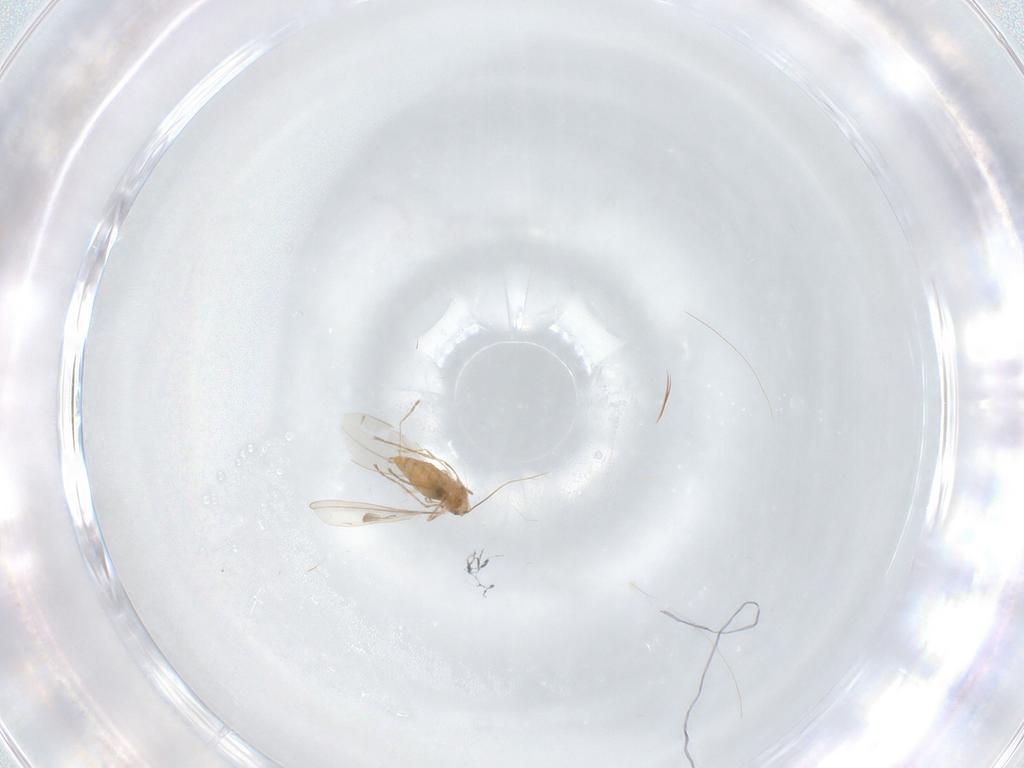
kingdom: Animalia
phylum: Arthropoda
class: Insecta
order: Diptera
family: Cecidomyiidae
